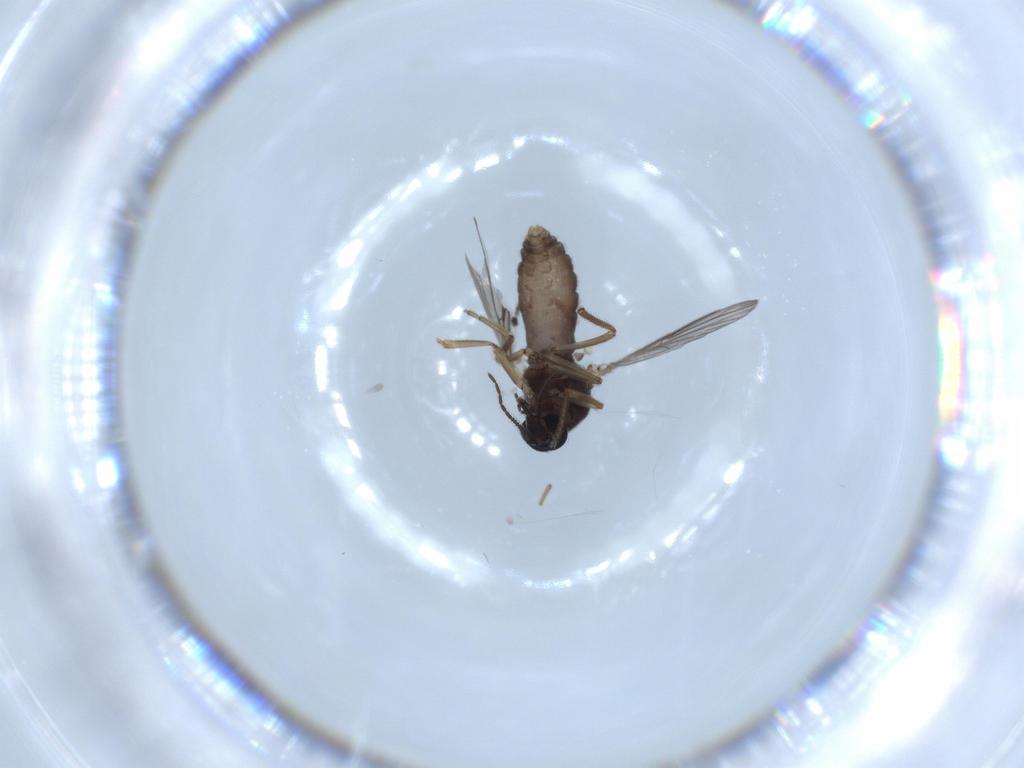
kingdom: Animalia
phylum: Arthropoda
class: Insecta
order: Diptera
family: Ceratopogonidae
